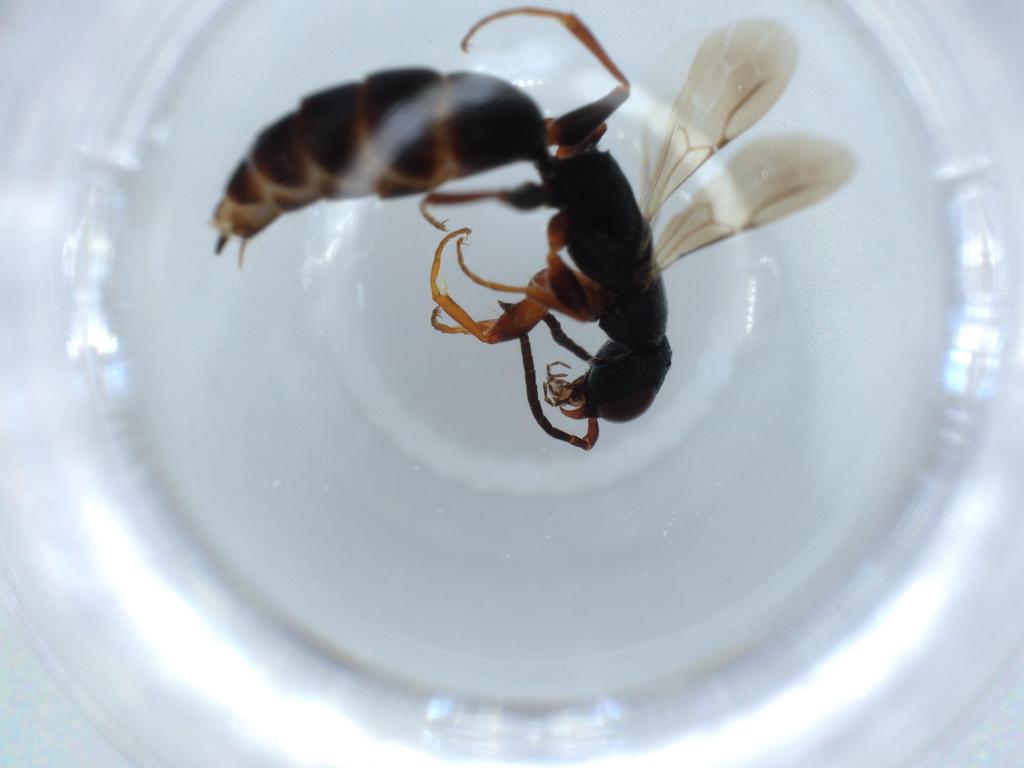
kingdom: Animalia
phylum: Arthropoda
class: Insecta
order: Hymenoptera
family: Bethylidae
